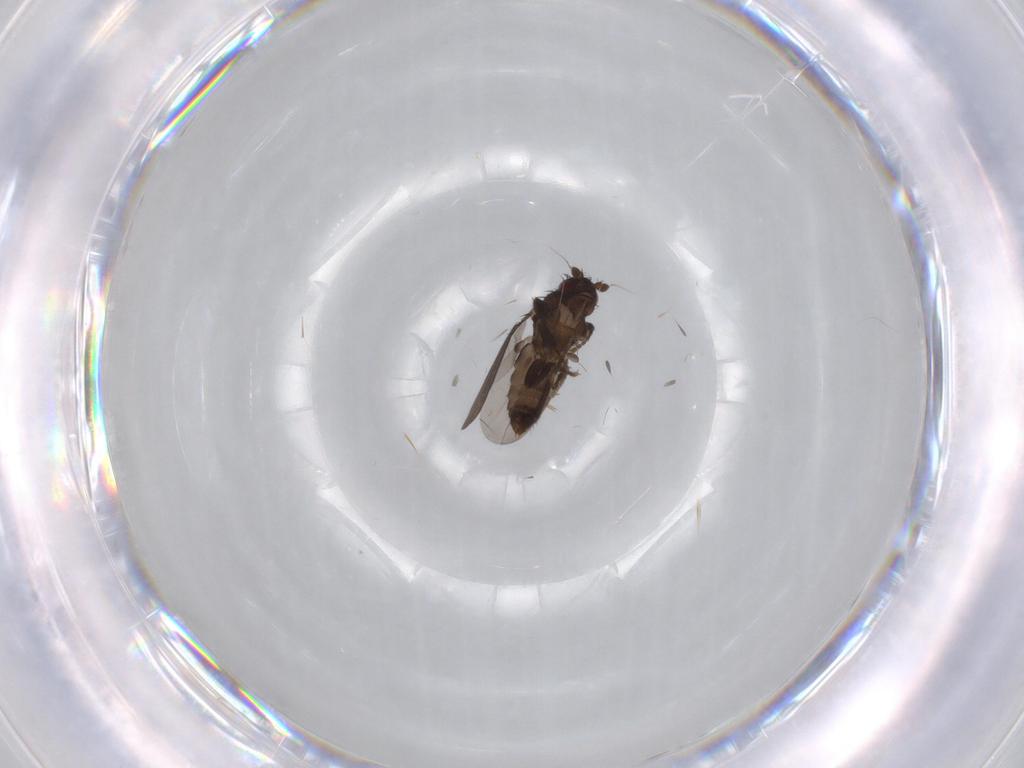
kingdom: Animalia
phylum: Arthropoda
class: Insecta
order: Diptera
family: Sphaeroceridae
